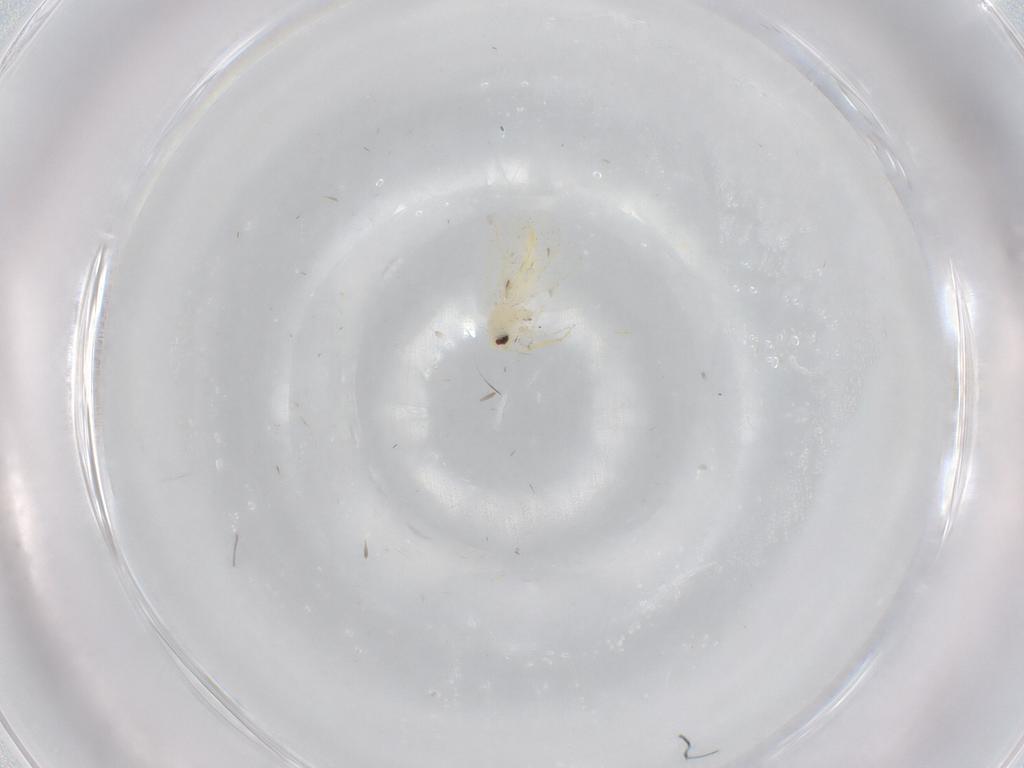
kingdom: Animalia
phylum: Arthropoda
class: Insecta
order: Hemiptera
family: Aleyrodidae
